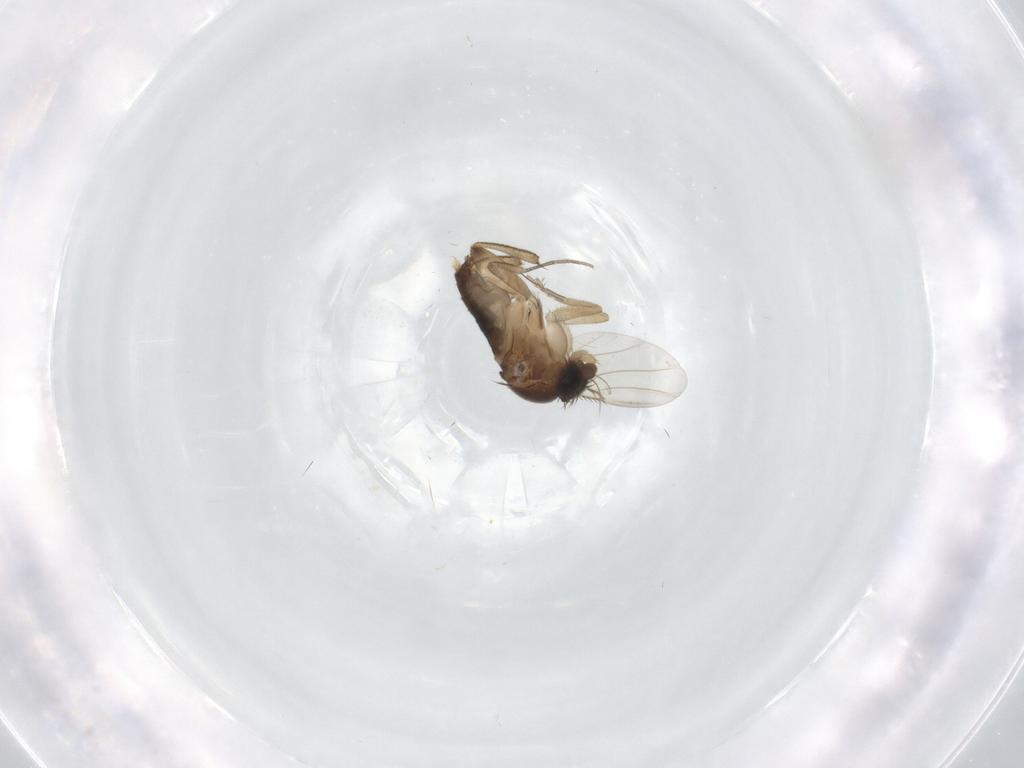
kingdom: Animalia
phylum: Arthropoda
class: Insecta
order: Diptera
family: Phoridae
